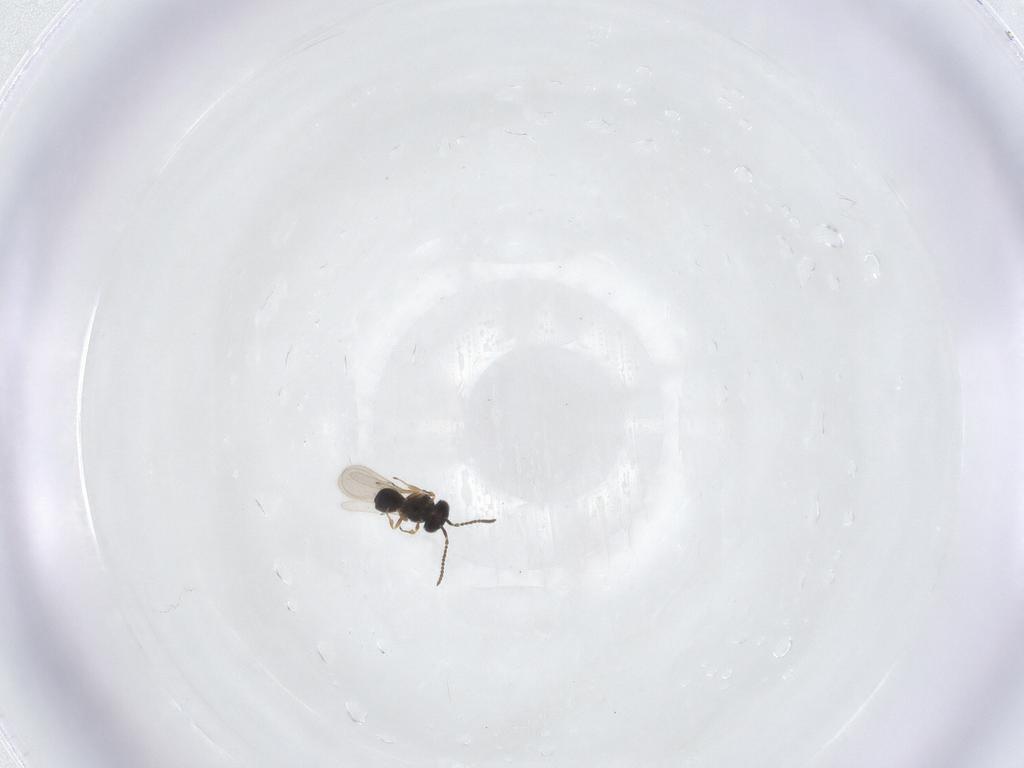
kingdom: Animalia
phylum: Arthropoda
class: Insecta
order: Hymenoptera
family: Scelionidae
